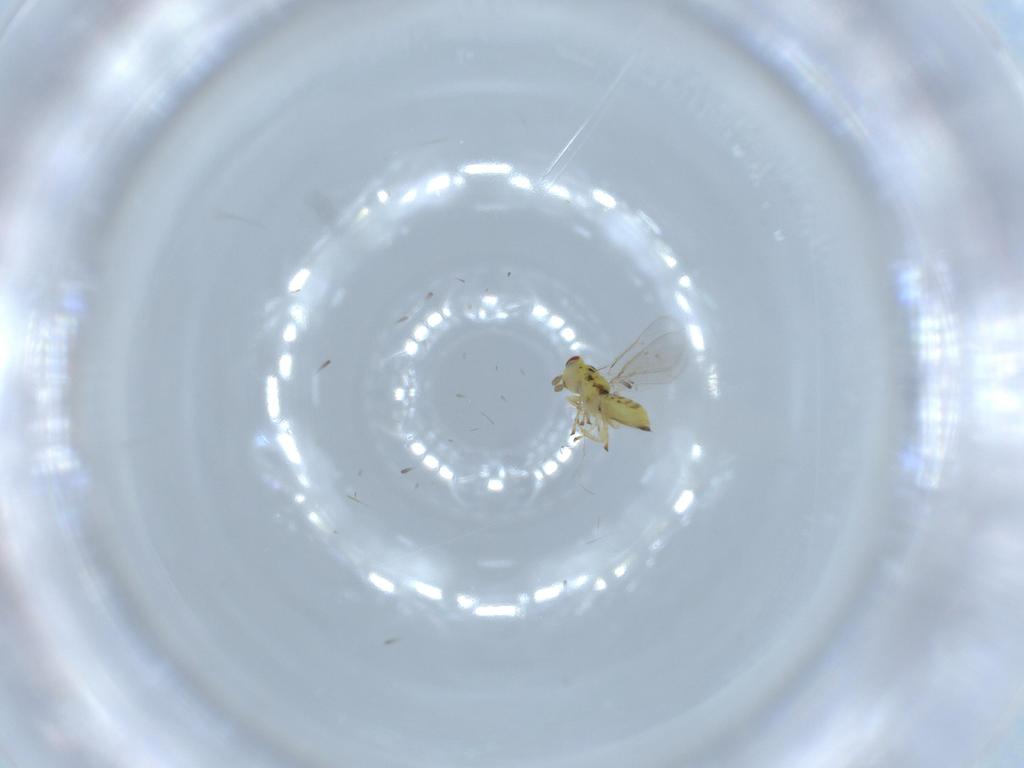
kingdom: Animalia
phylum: Arthropoda
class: Insecta
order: Hymenoptera
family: Eulophidae
